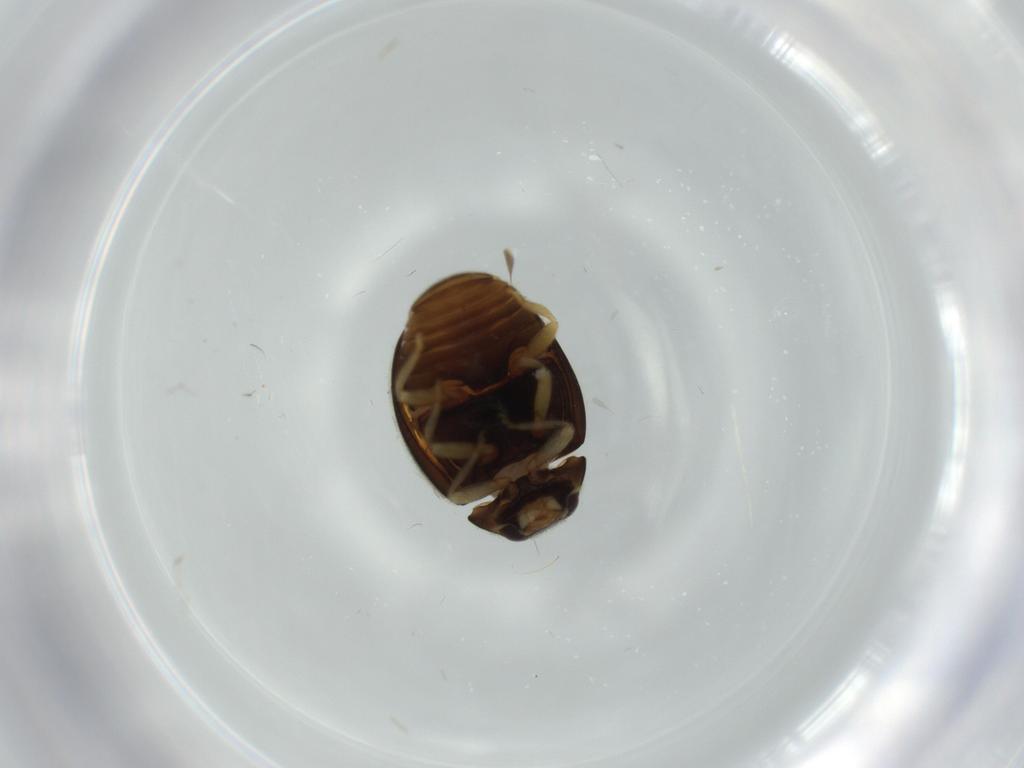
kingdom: Animalia
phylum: Arthropoda
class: Insecta
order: Coleoptera
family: Coccinellidae
